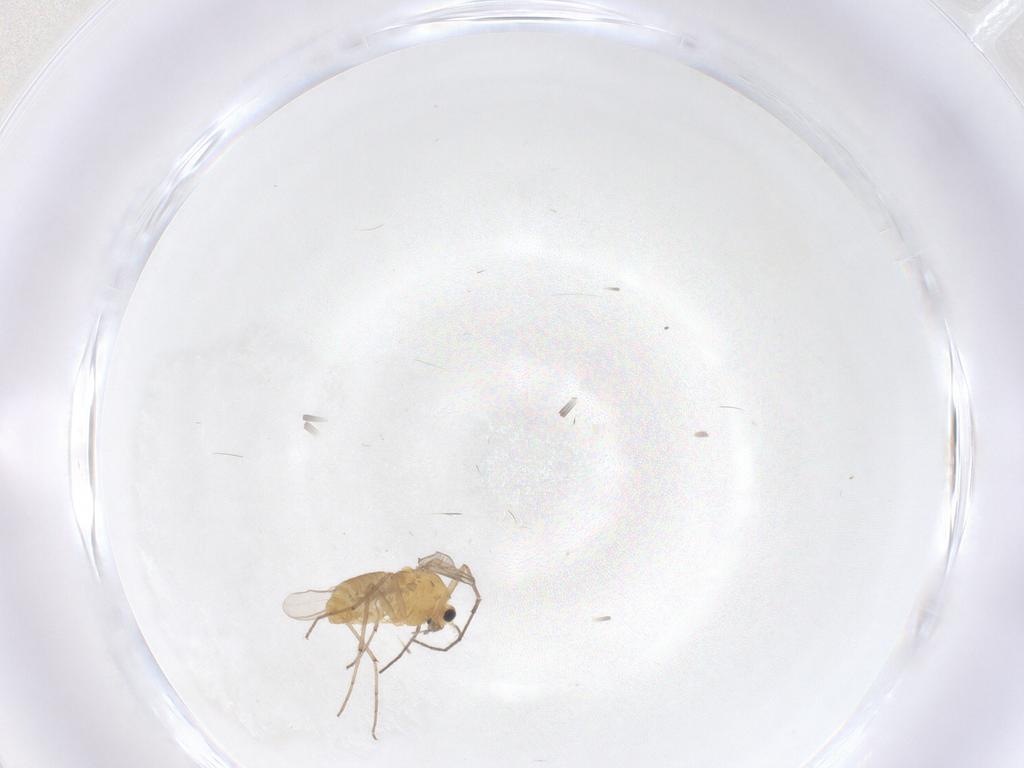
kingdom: Animalia
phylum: Arthropoda
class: Insecta
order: Diptera
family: Chironomidae
